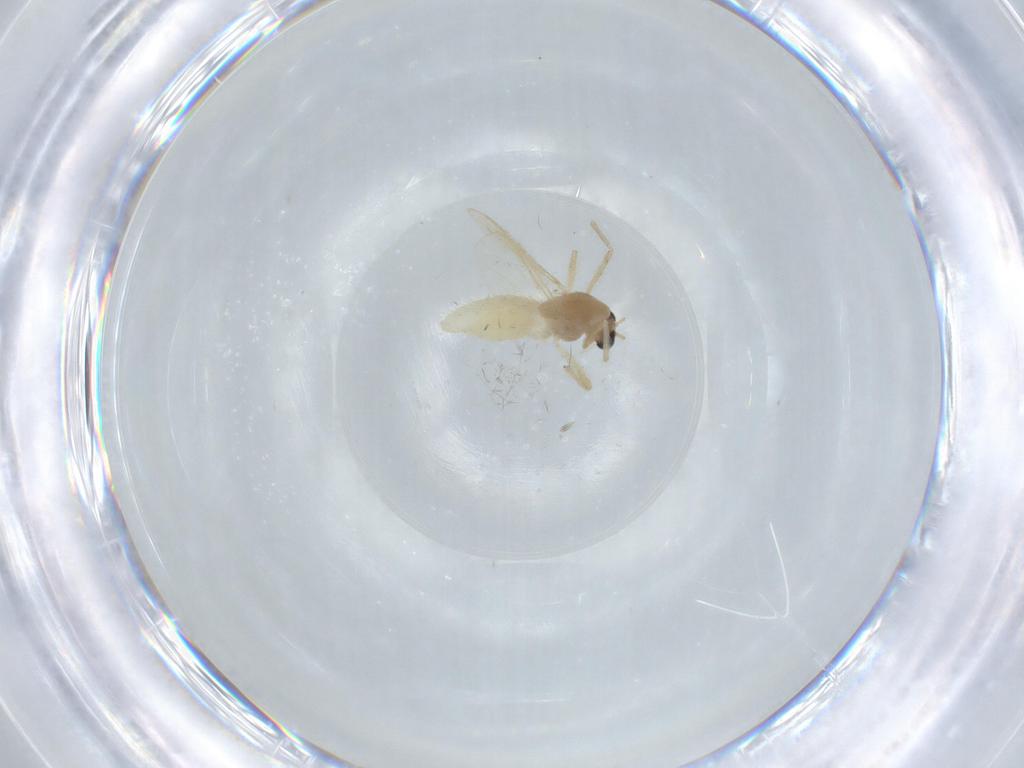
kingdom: Animalia
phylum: Arthropoda
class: Insecta
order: Diptera
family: Chironomidae
